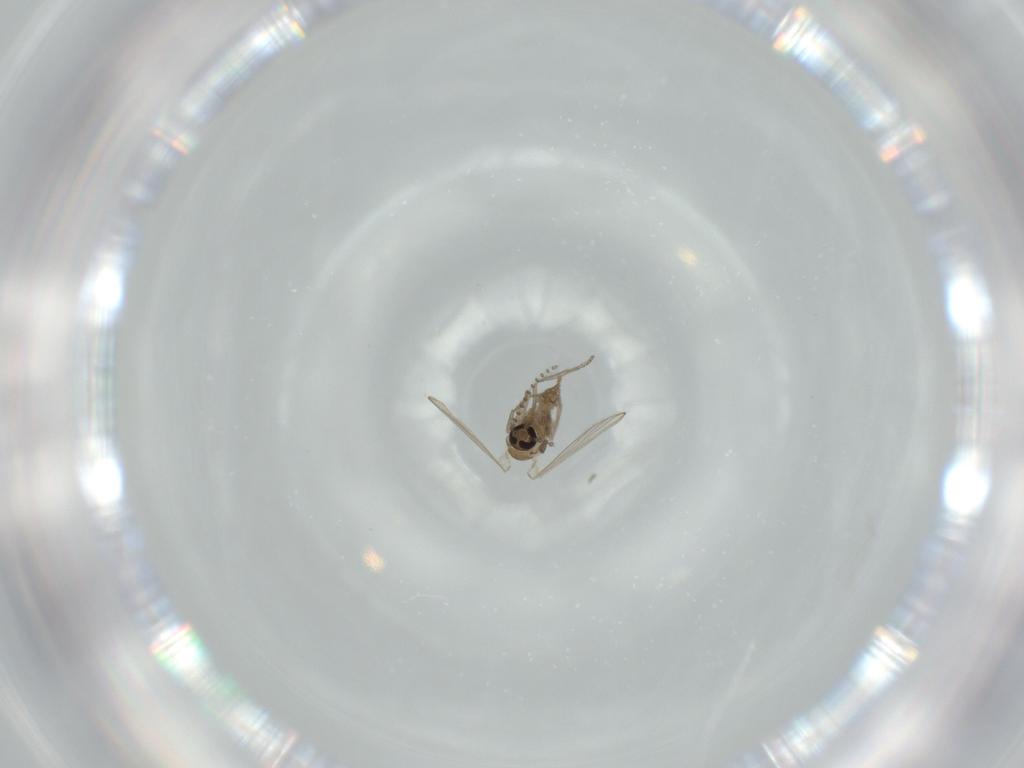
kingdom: Animalia
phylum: Arthropoda
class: Insecta
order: Diptera
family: Psychodidae
